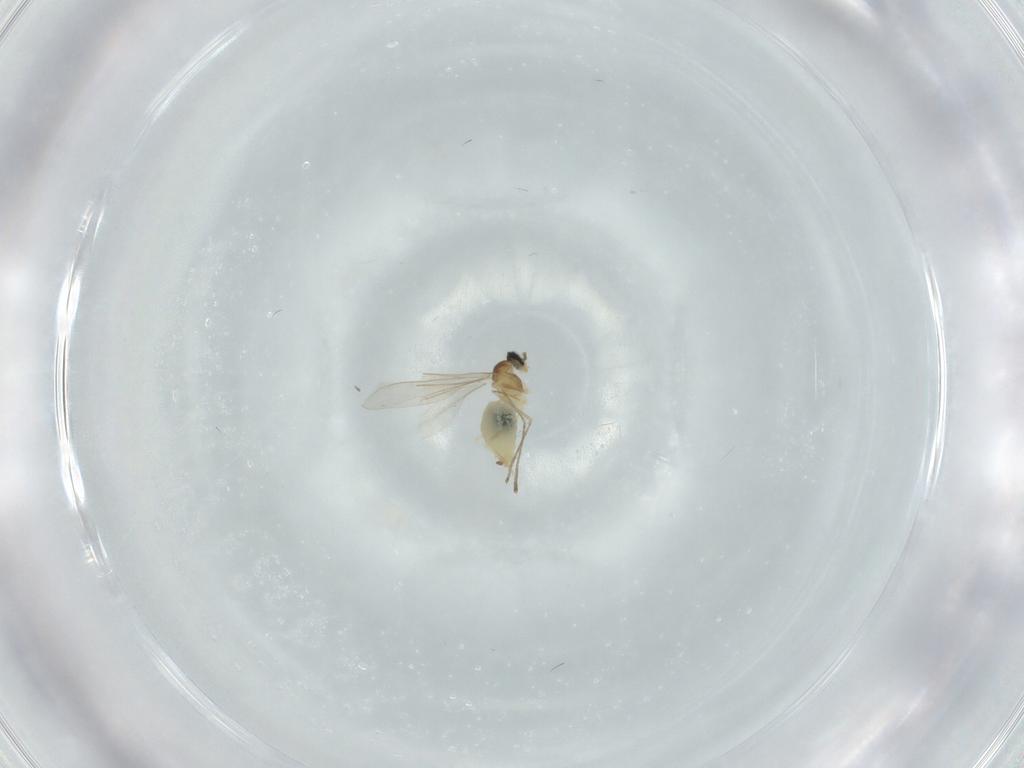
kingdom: Animalia
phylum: Arthropoda
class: Insecta
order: Diptera
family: Cecidomyiidae
